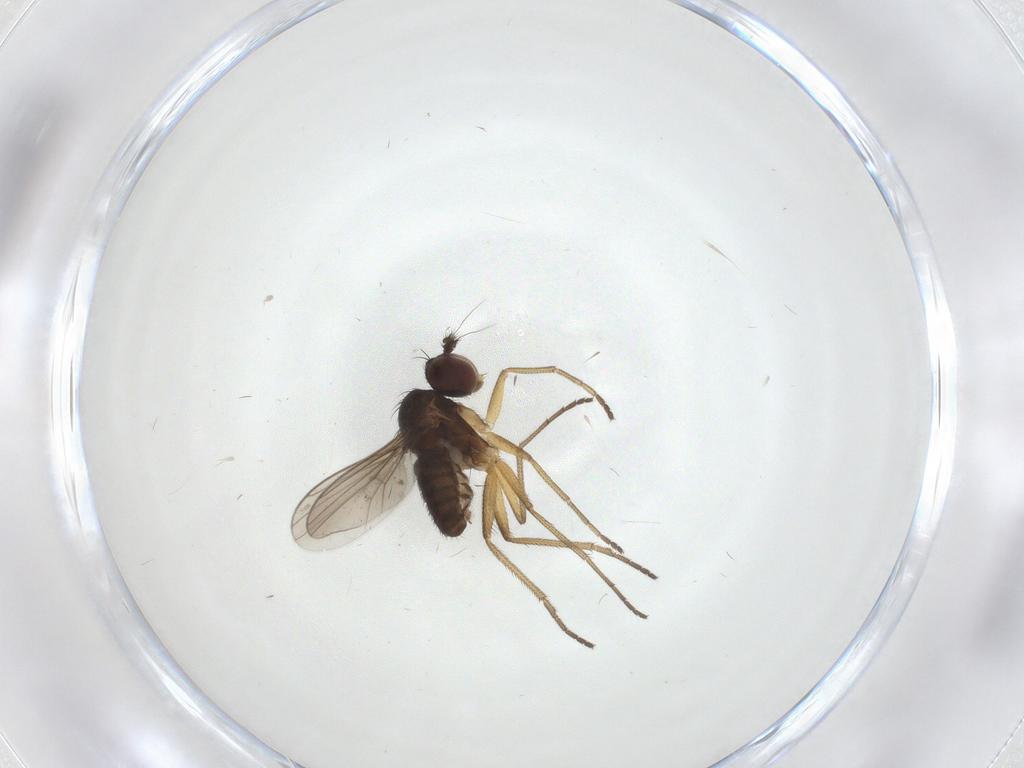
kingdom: Animalia
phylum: Arthropoda
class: Insecta
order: Diptera
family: Dolichopodidae
